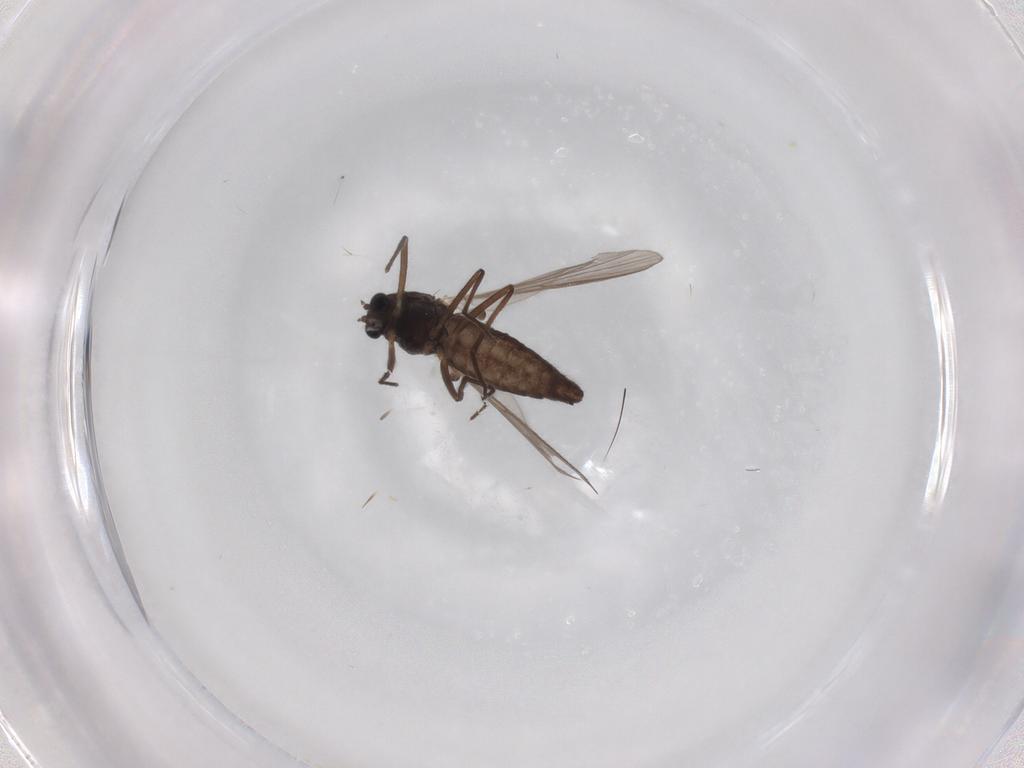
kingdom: Animalia
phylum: Arthropoda
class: Insecta
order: Diptera
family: Chironomidae
